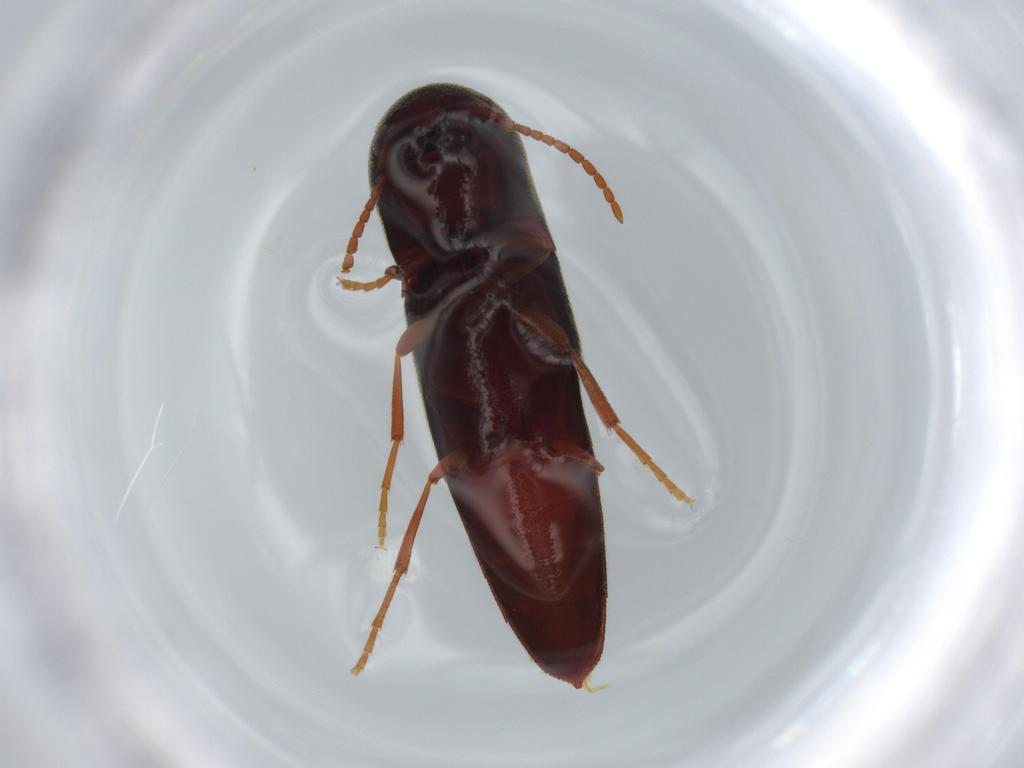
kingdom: Animalia
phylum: Arthropoda
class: Insecta
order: Coleoptera
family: Eucnemidae
